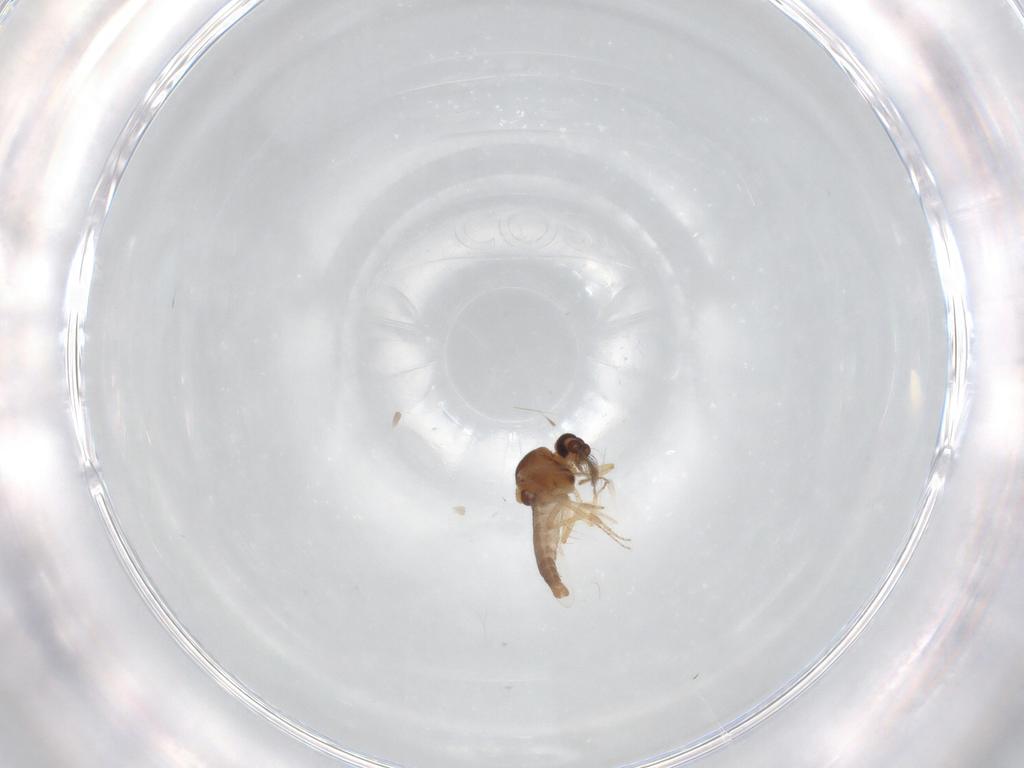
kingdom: Animalia
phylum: Arthropoda
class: Insecta
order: Diptera
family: Ceratopogonidae
